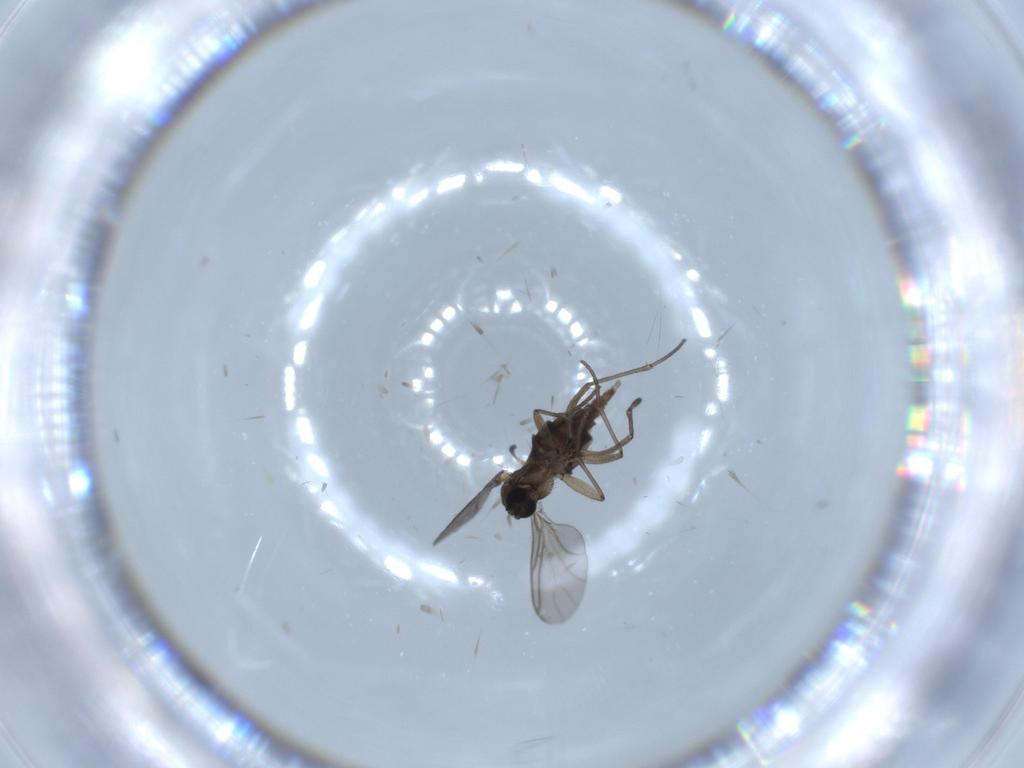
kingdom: Animalia
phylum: Arthropoda
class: Insecta
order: Diptera
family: Sciaridae
